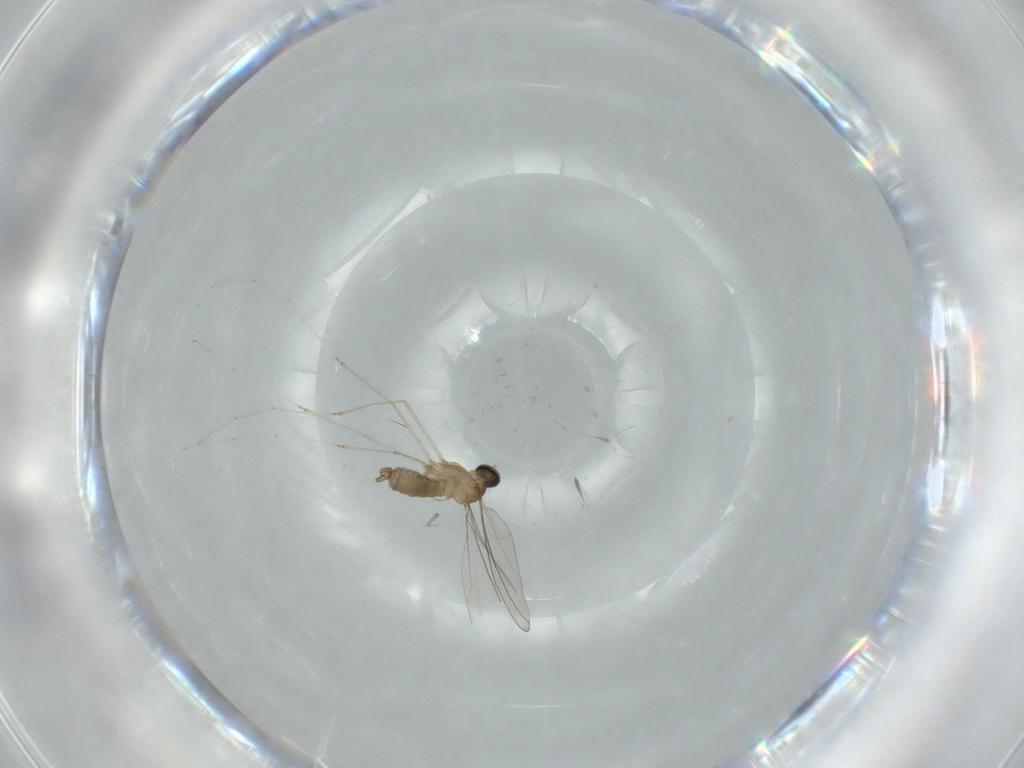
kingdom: Animalia
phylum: Arthropoda
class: Insecta
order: Diptera
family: Cecidomyiidae
